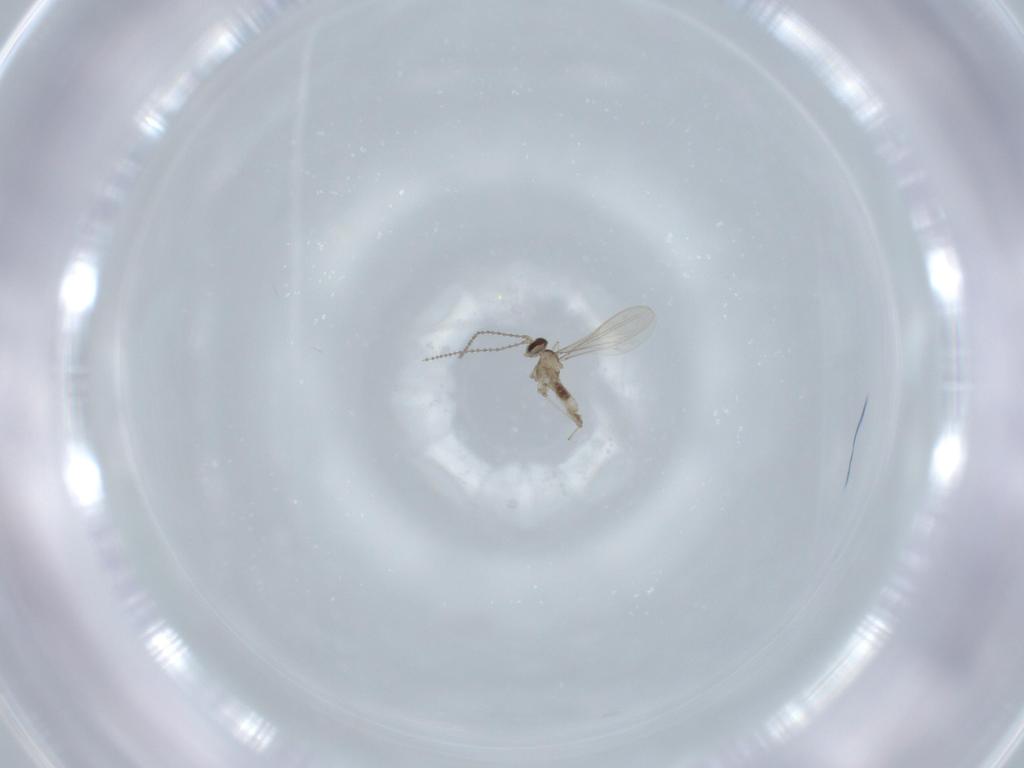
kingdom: Animalia
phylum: Arthropoda
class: Insecta
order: Diptera
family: Cecidomyiidae
